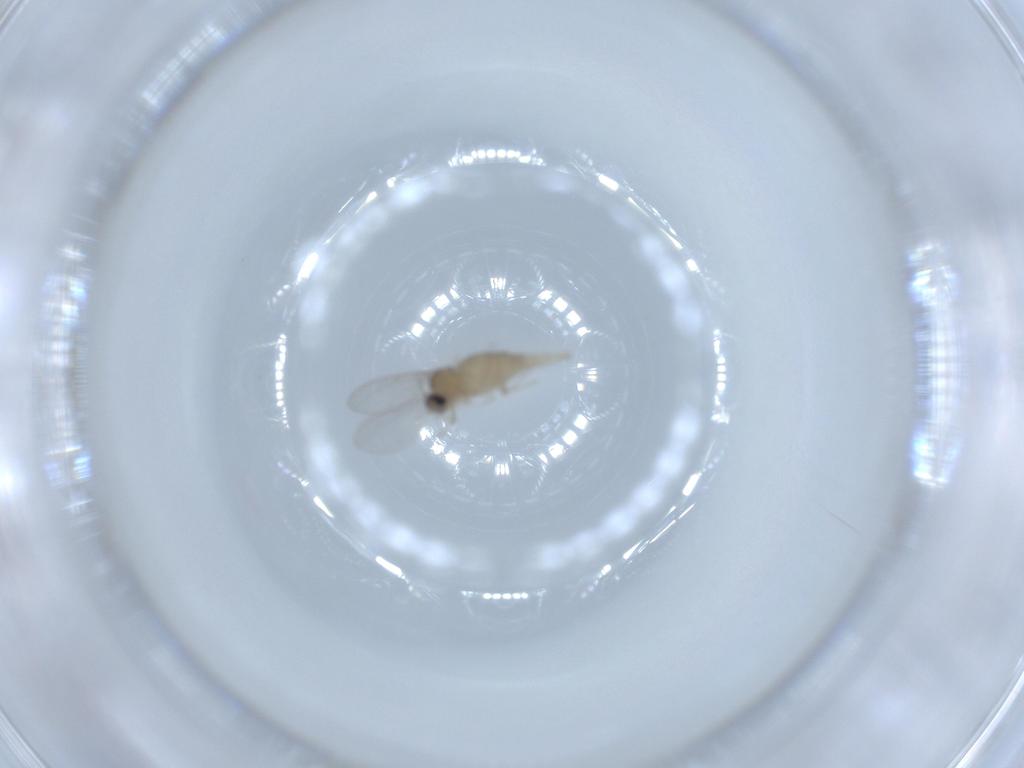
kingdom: Animalia
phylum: Arthropoda
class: Insecta
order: Diptera
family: Cecidomyiidae
